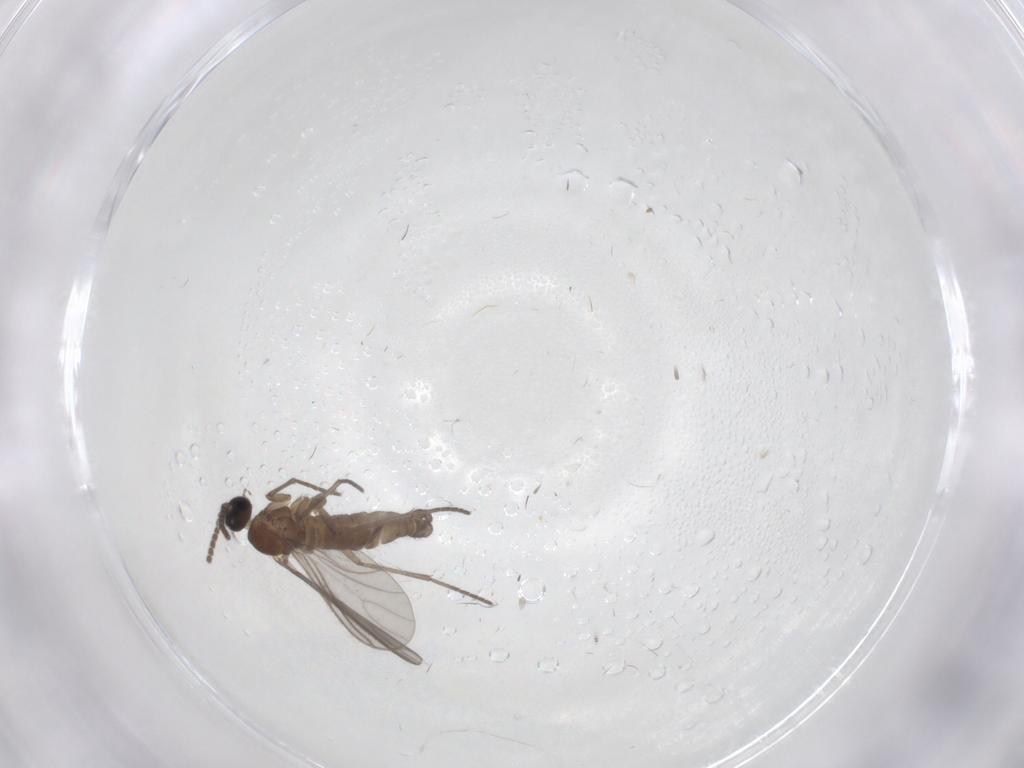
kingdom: Animalia
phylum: Arthropoda
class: Insecta
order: Diptera
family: Sciaridae
